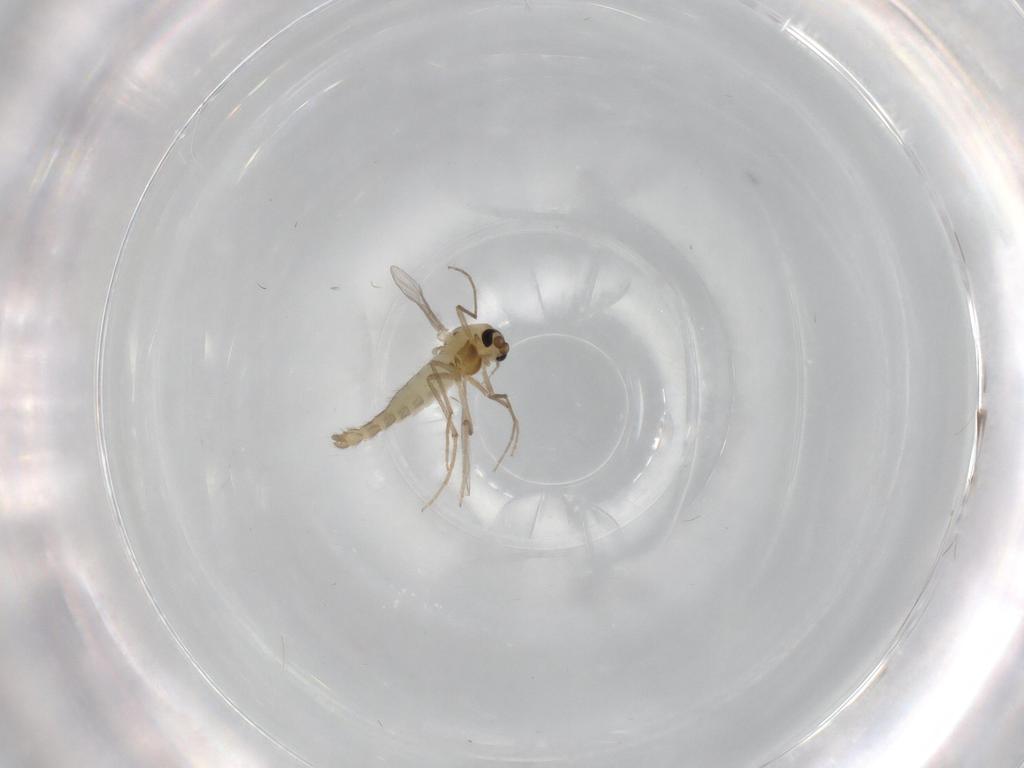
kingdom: Animalia
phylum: Arthropoda
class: Insecta
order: Diptera
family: Chironomidae
